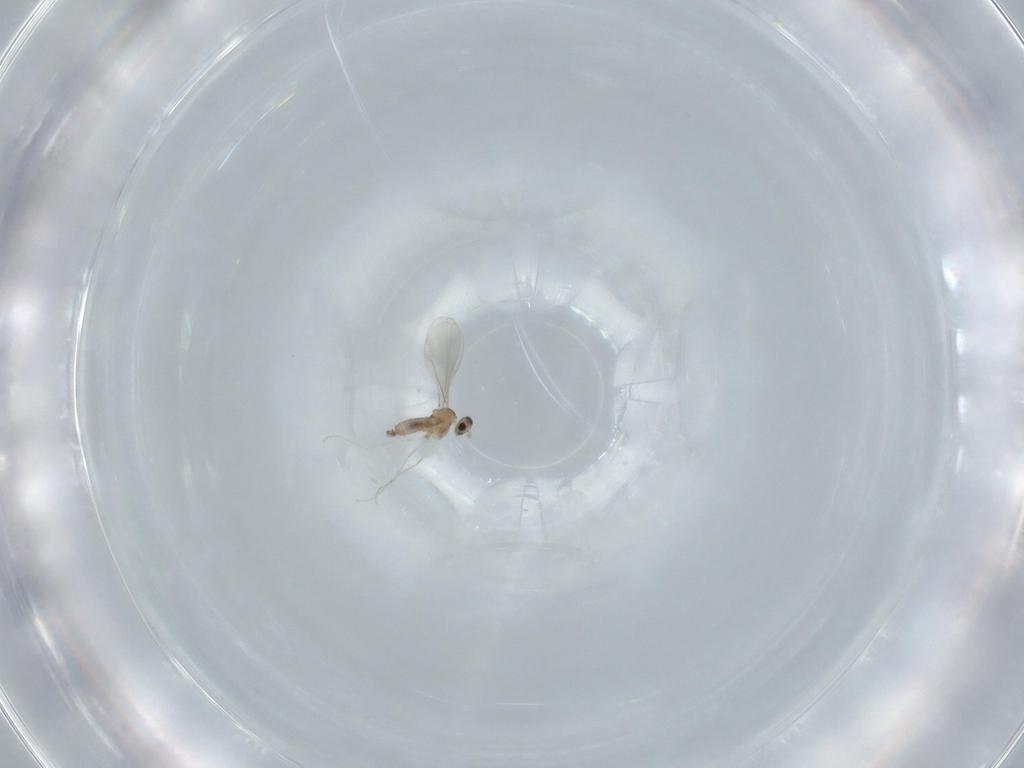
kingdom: Animalia
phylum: Arthropoda
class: Insecta
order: Diptera
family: Cecidomyiidae
